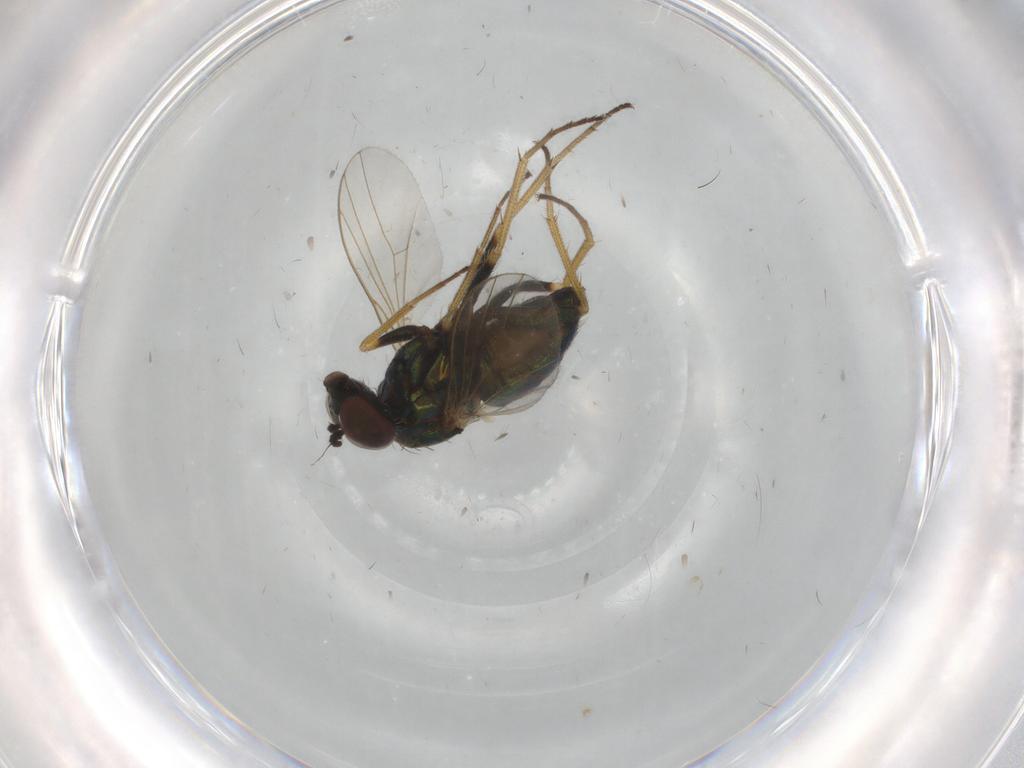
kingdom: Animalia
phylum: Arthropoda
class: Insecta
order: Diptera
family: Dolichopodidae
